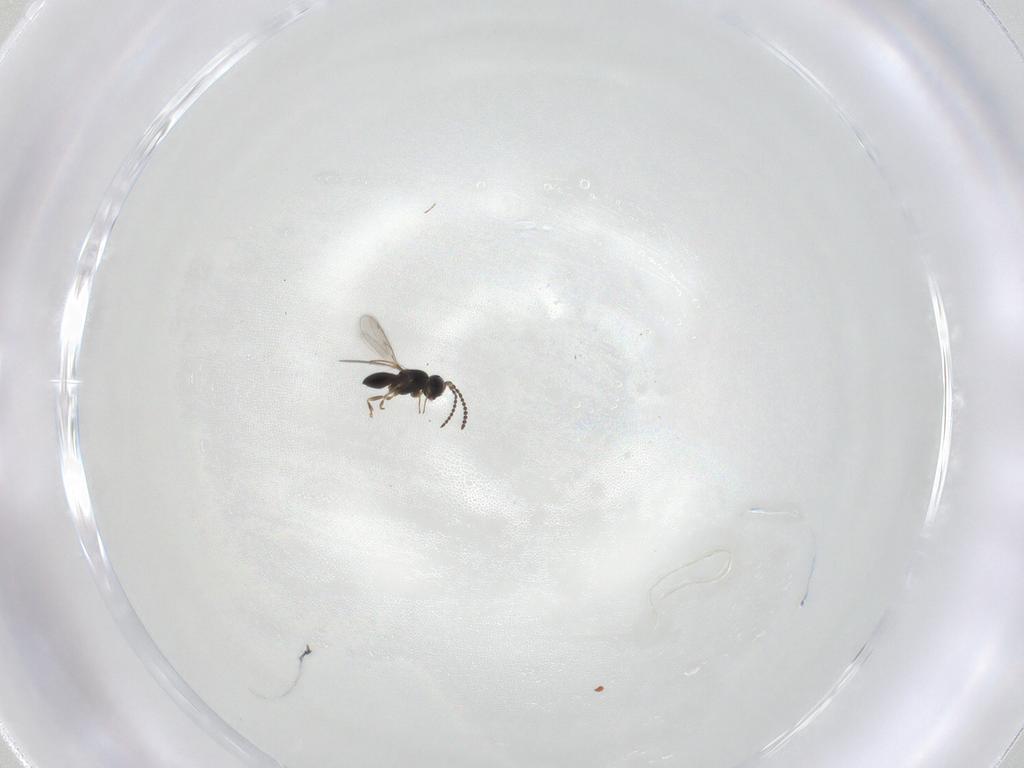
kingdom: Animalia
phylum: Arthropoda
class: Insecta
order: Hymenoptera
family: Scelionidae
